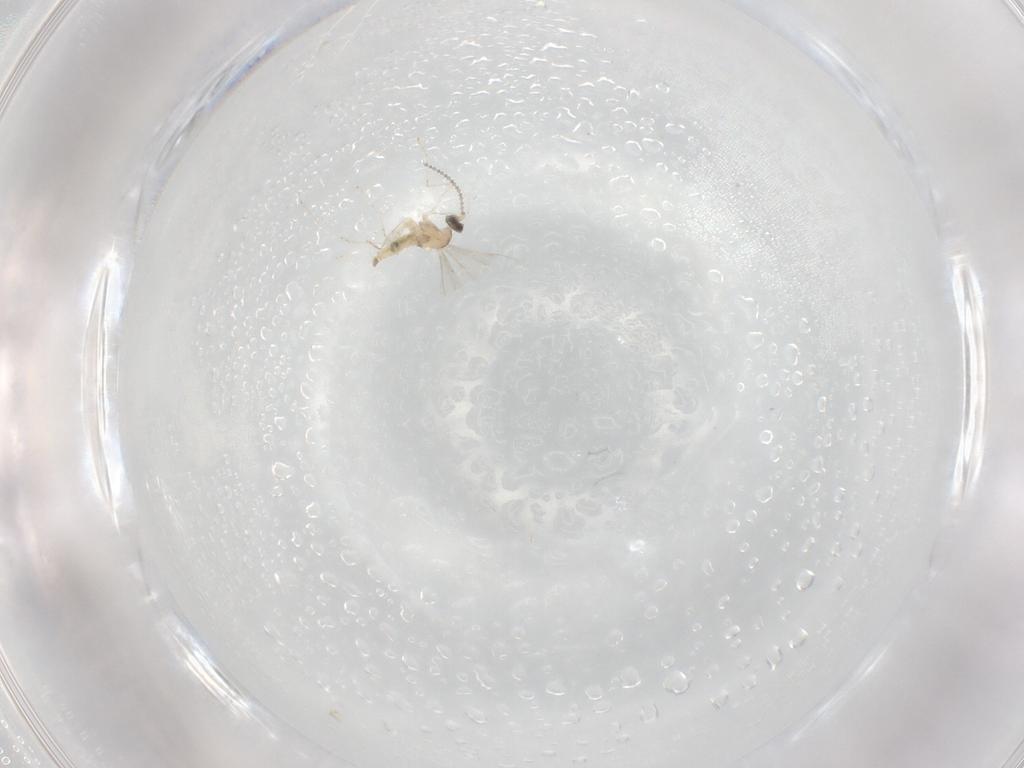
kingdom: Animalia
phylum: Arthropoda
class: Insecta
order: Diptera
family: Cecidomyiidae
